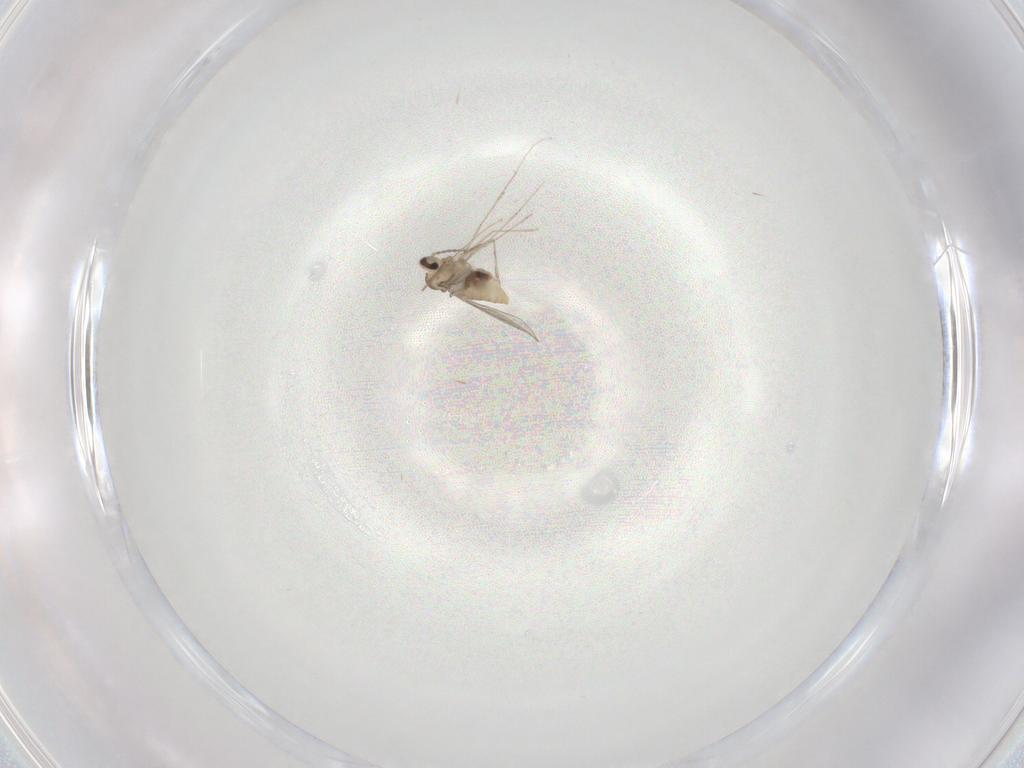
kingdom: Animalia
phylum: Arthropoda
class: Insecta
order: Diptera
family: Cecidomyiidae
